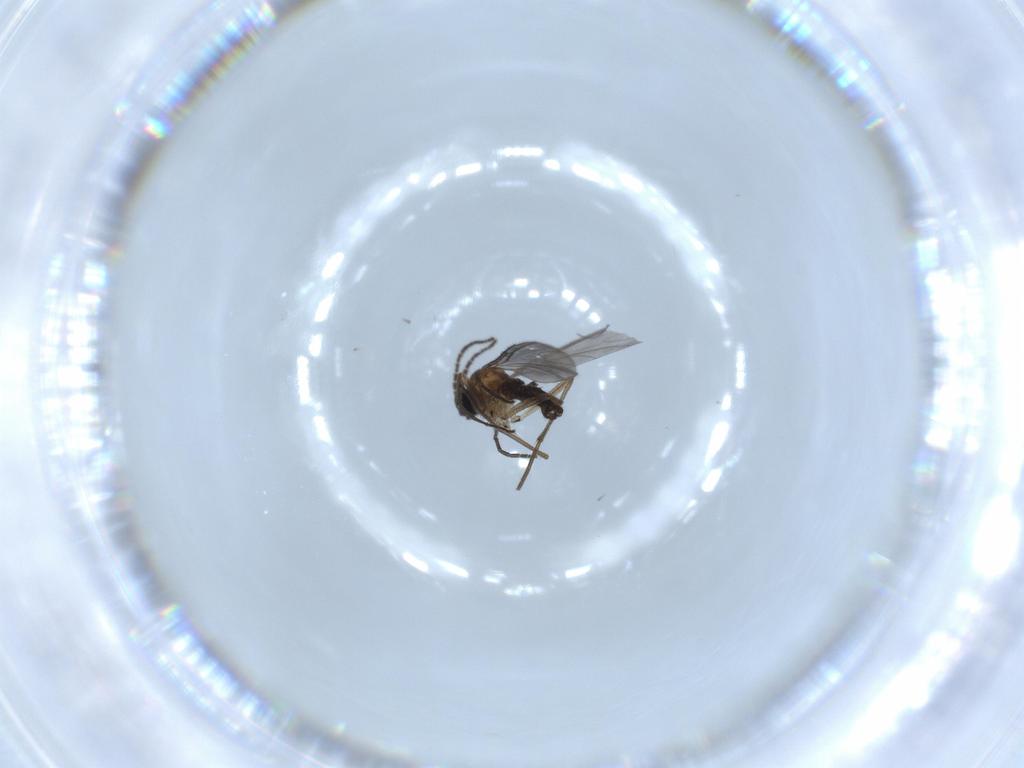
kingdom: Animalia
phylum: Arthropoda
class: Insecta
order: Diptera
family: Sciaridae
